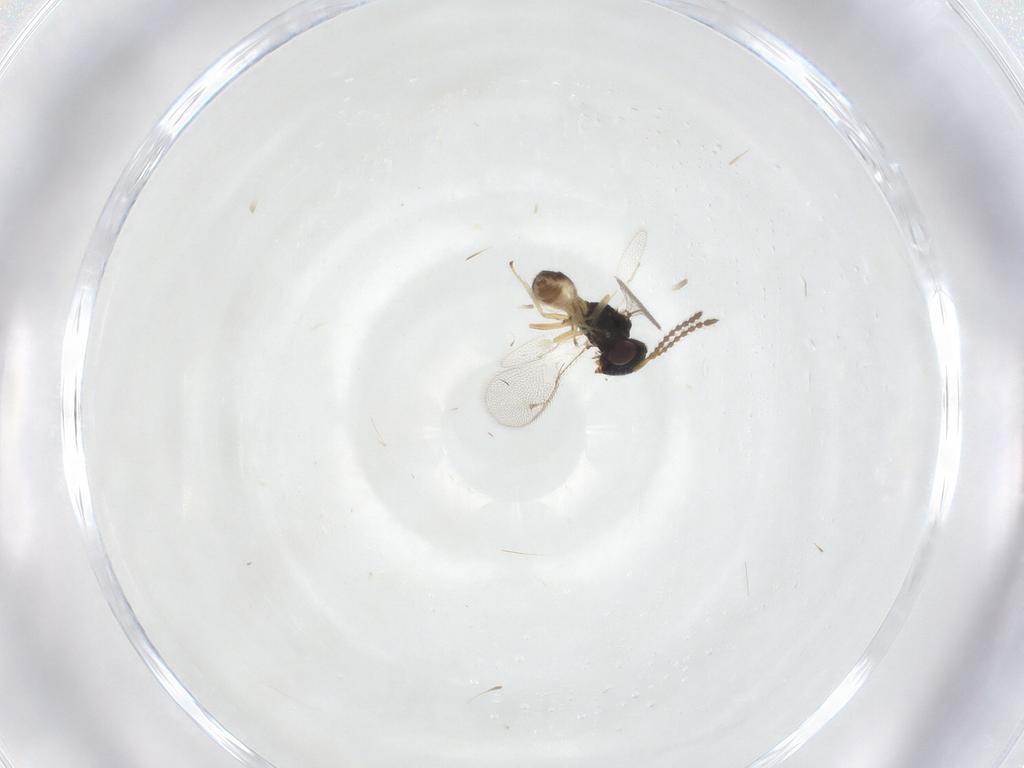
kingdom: Animalia
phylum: Arthropoda
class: Insecta
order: Hymenoptera
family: Pteromalidae
